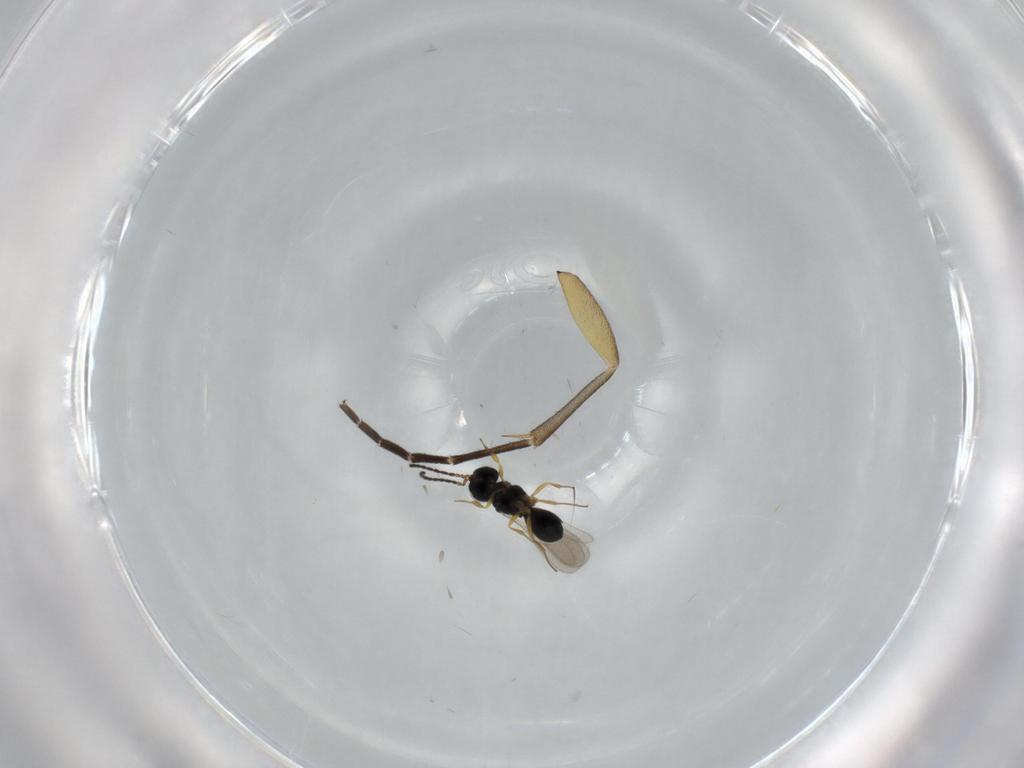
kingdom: Animalia
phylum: Arthropoda
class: Insecta
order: Hymenoptera
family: Scelionidae
